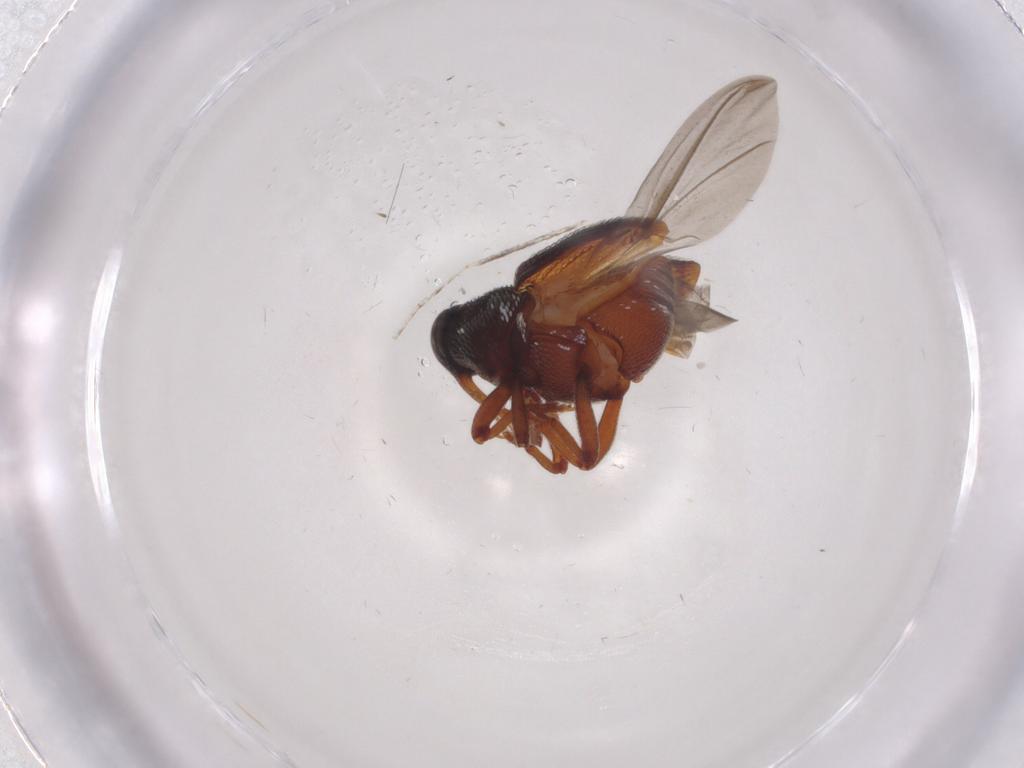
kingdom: Animalia
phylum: Arthropoda
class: Insecta
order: Coleoptera
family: Curculionidae
